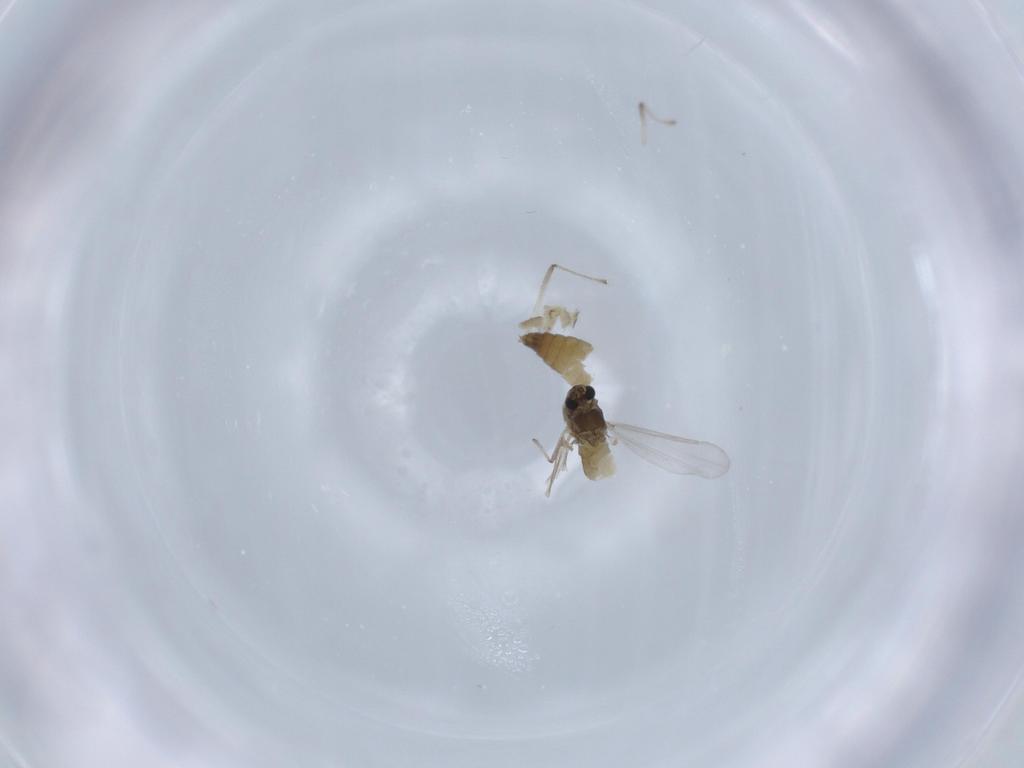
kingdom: Animalia
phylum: Arthropoda
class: Insecta
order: Diptera
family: Chironomidae
